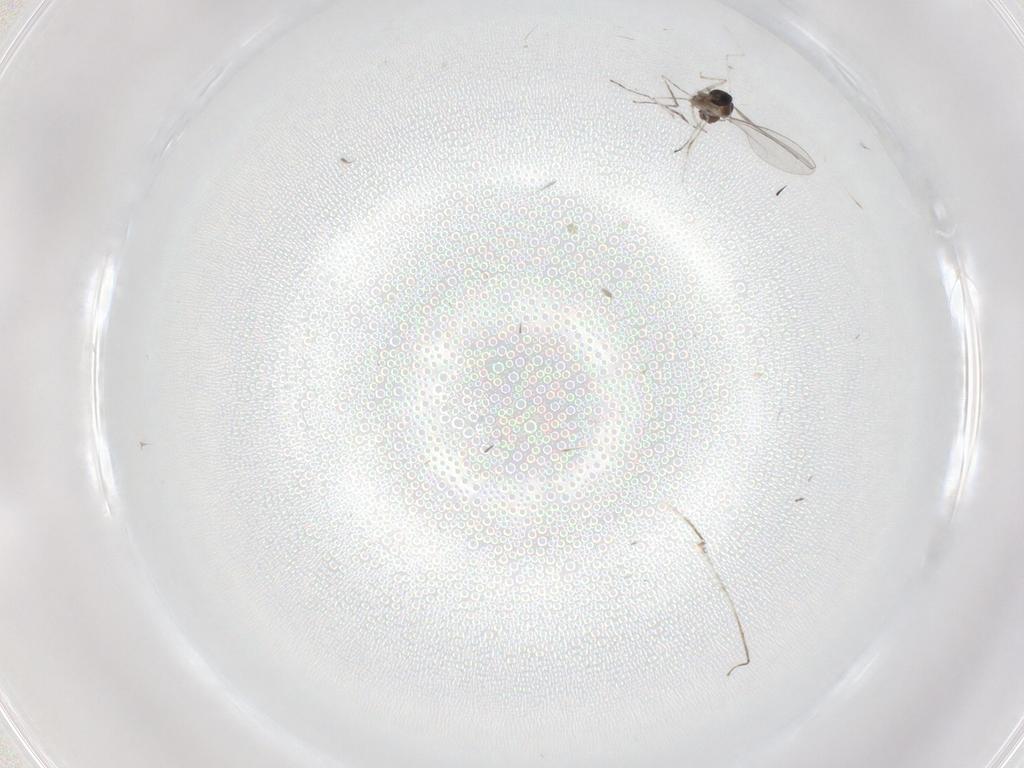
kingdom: Animalia
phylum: Arthropoda
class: Insecta
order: Diptera
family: Cecidomyiidae
